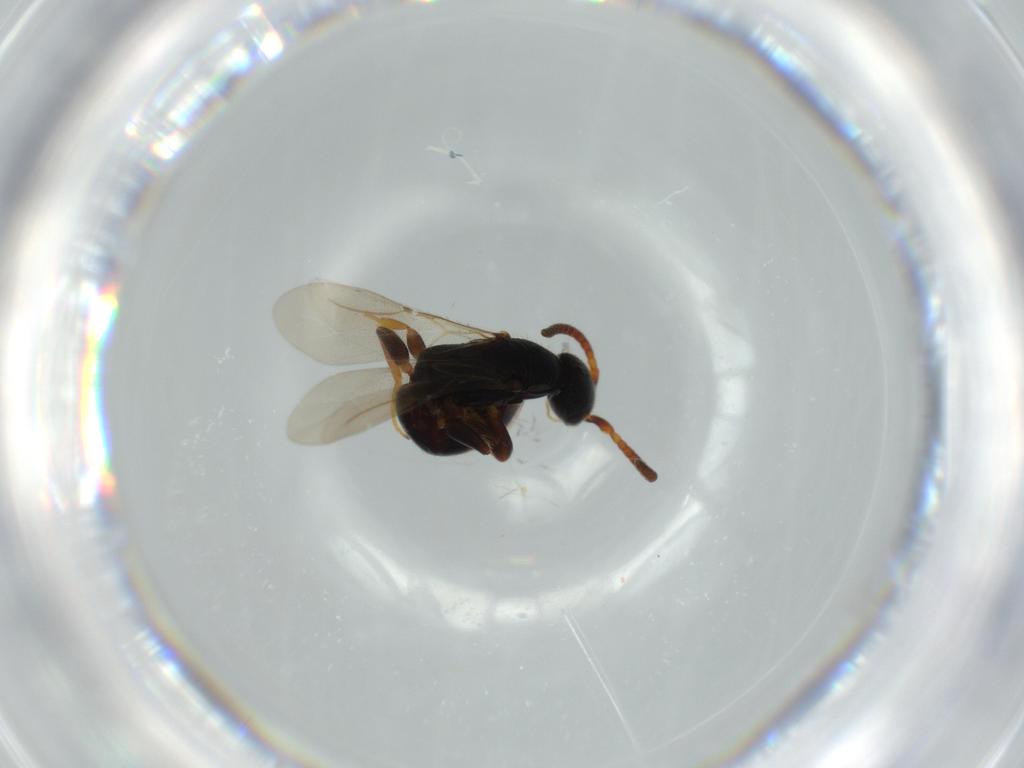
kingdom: Animalia
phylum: Arthropoda
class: Insecta
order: Hymenoptera
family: Bethylidae
